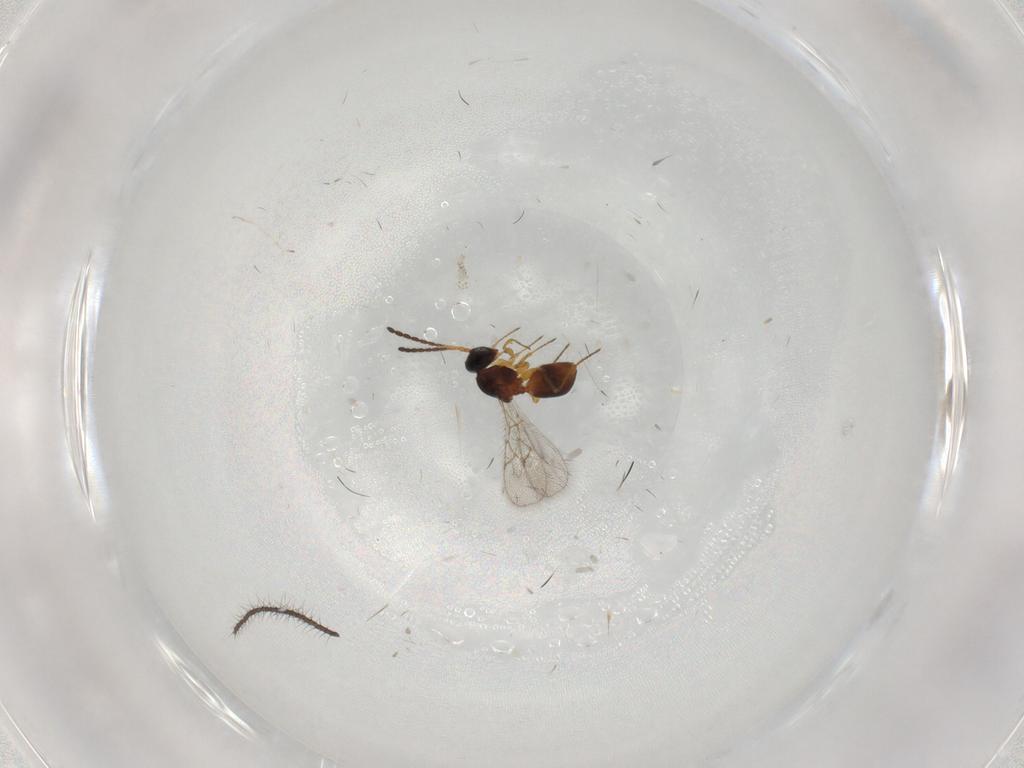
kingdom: Animalia
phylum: Arthropoda
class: Insecta
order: Hymenoptera
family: Figitidae
